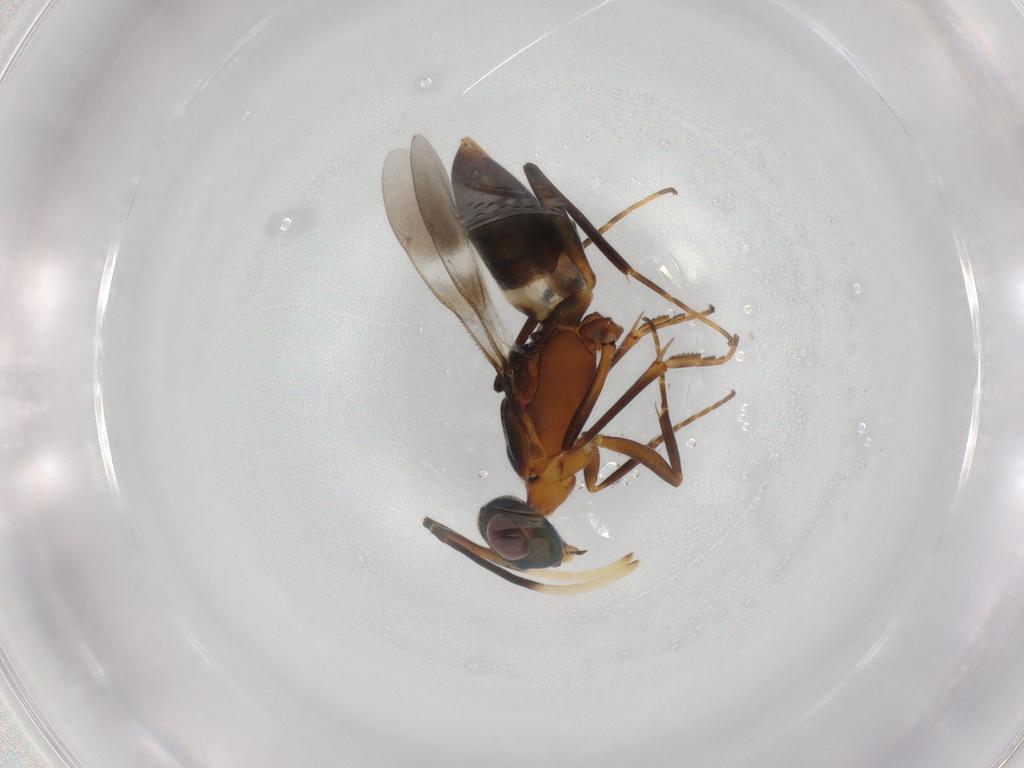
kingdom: Animalia
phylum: Arthropoda
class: Insecta
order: Hymenoptera
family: Eupelmidae
